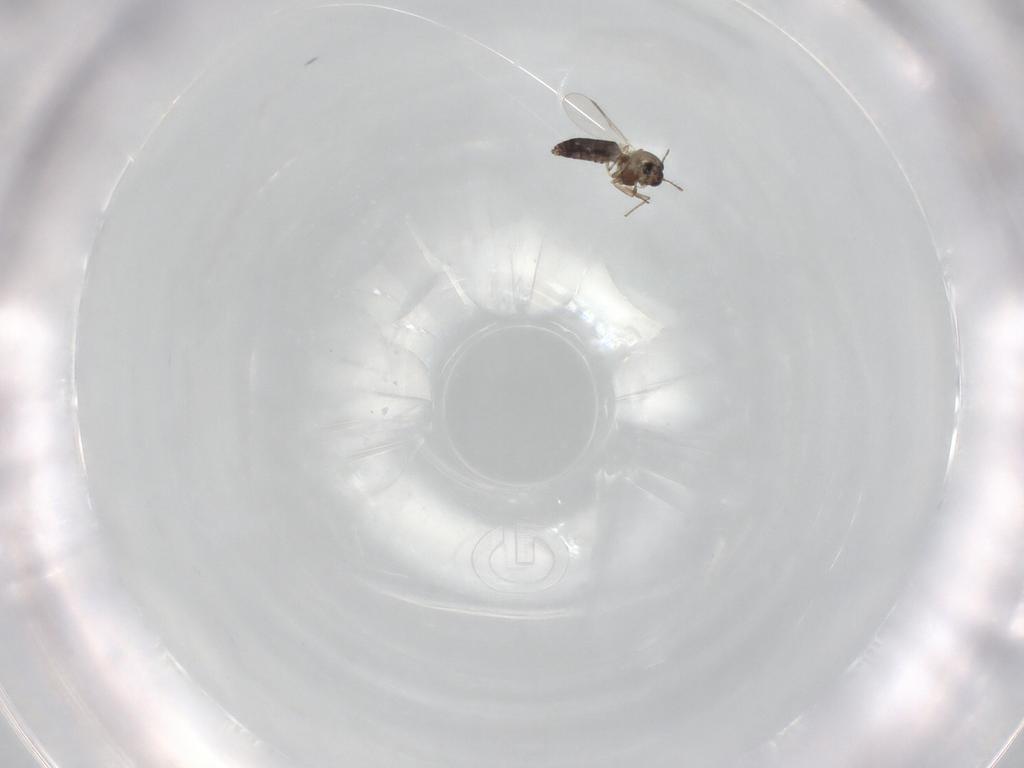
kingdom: Animalia
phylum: Arthropoda
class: Insecta
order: Diptera
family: Chironomidae
